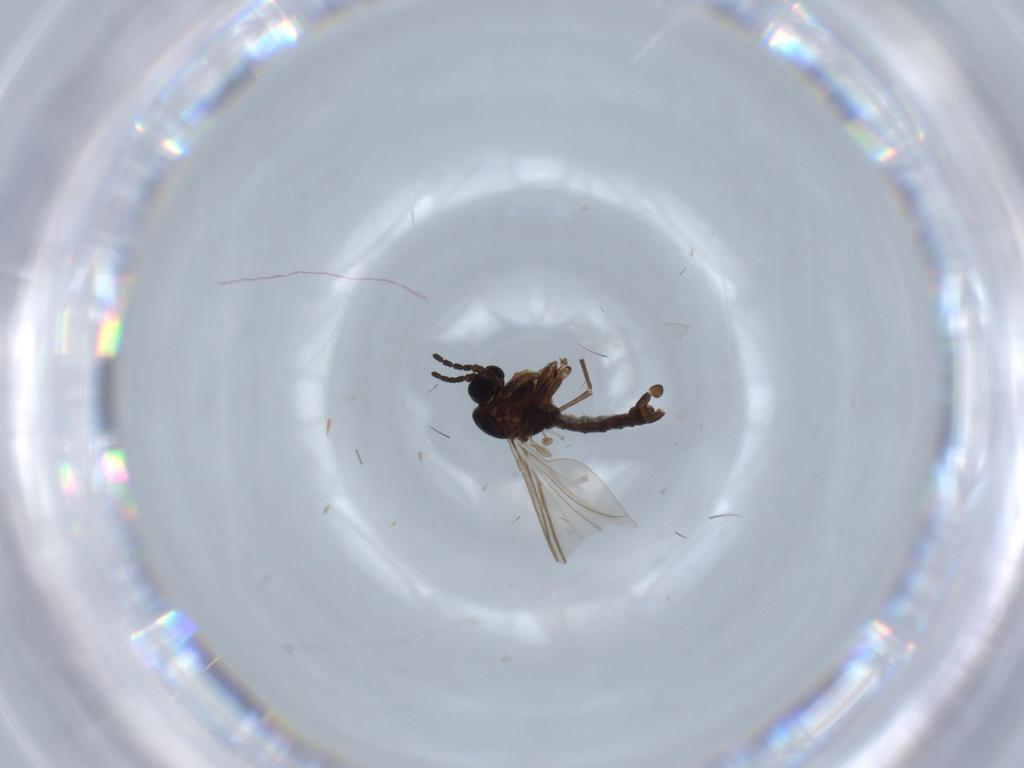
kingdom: Animalia
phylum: Arthropoda
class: Insecta
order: Diptera
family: Sciaridae
